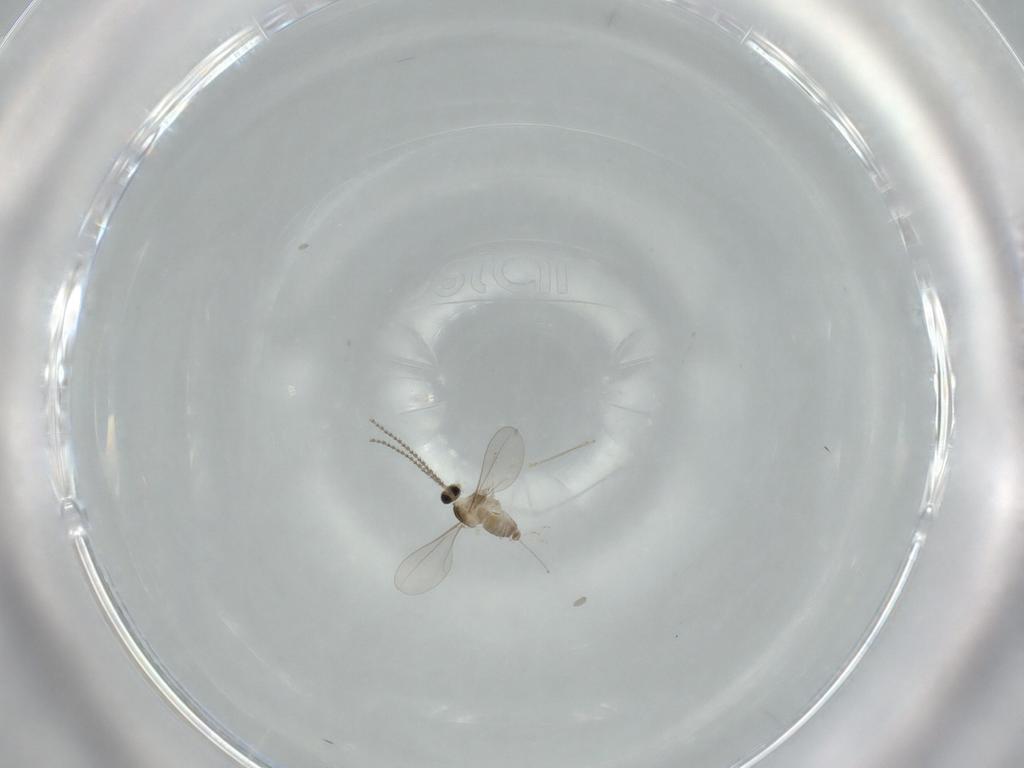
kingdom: Animalia
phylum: Arthropoda
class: Insecta
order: Diptera
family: Cecidomyiidae
